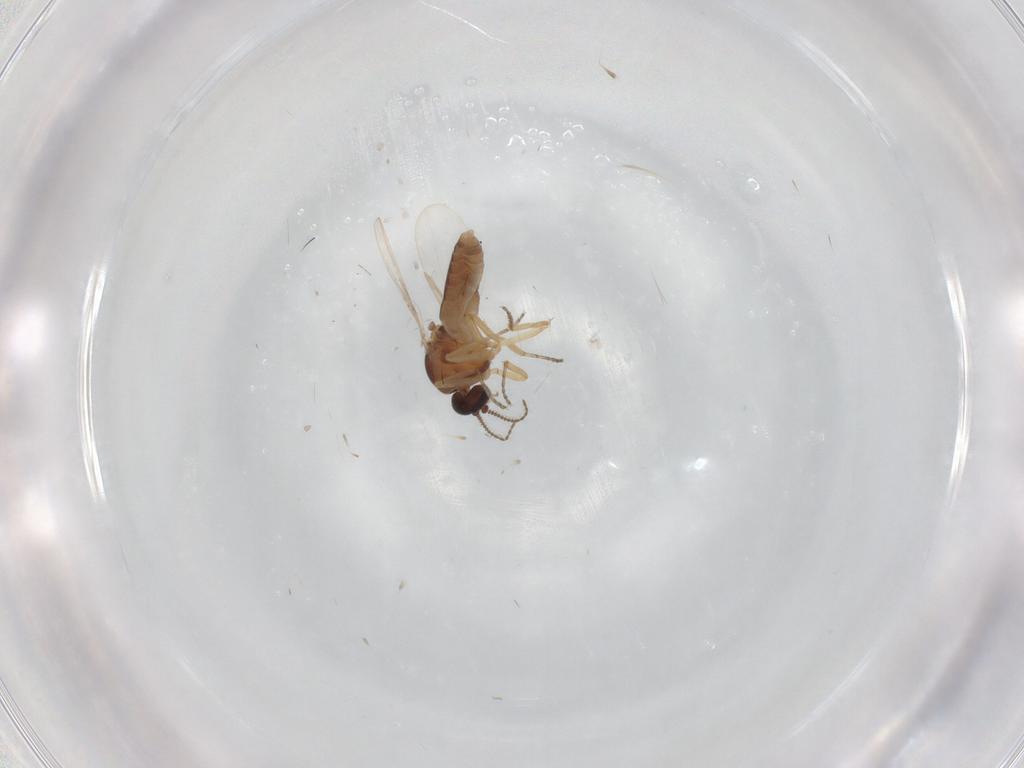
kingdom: Animalia
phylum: Arthropoda
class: Insecta
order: Diptera
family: Ceratopogonidae
